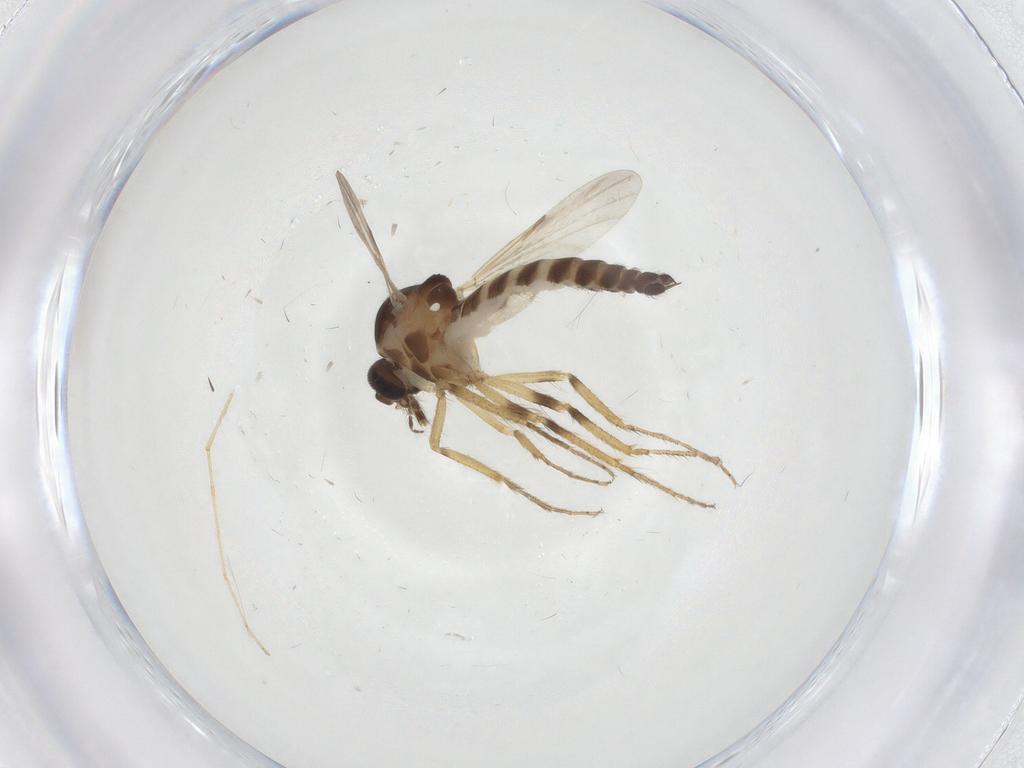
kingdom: Animalia
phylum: Arthropoda
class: Insecta
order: Diptera
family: Ceratopogonidae
